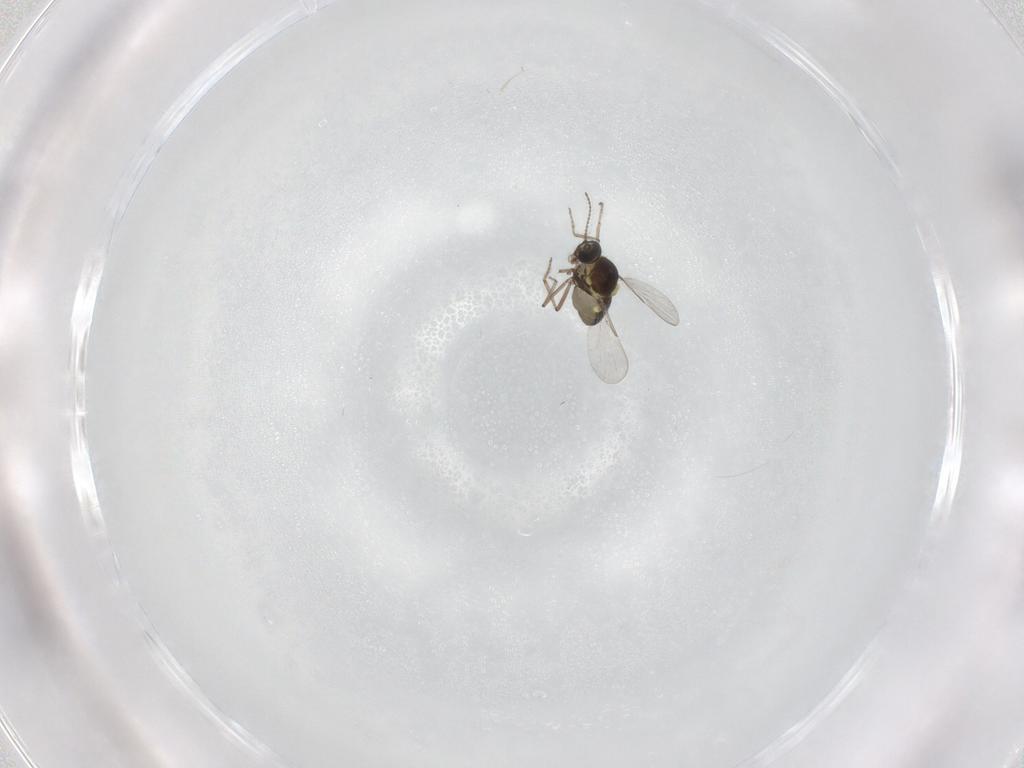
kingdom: Animalia
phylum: Arthropoda
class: Insecta
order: Diptera
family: Ceratopogonidae
